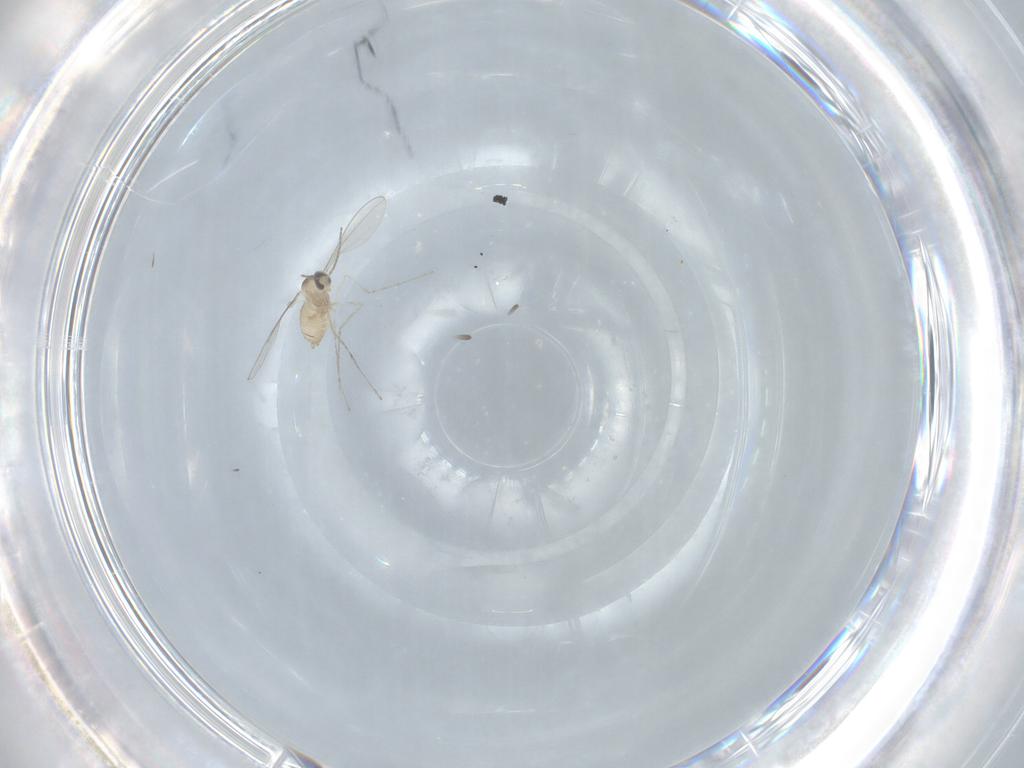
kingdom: Animalia
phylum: Arthropoda
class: Insecta
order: Diptera
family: Cecidomyiidae
